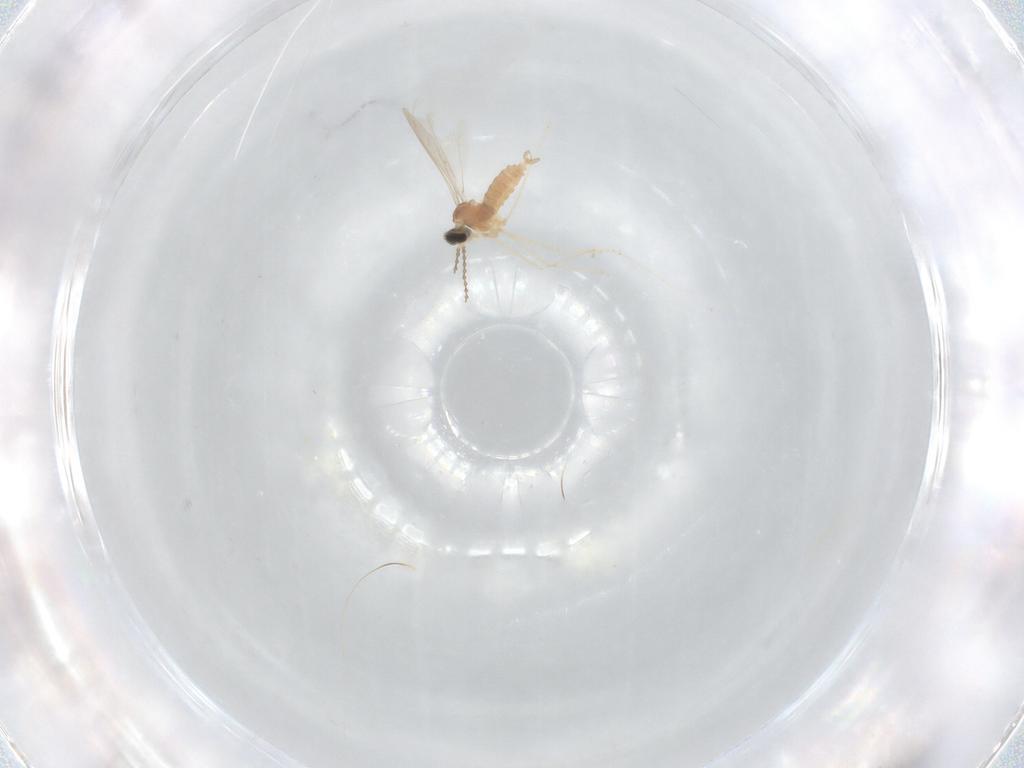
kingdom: Animalia
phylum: Arthropoda
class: Insecta
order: Diptera
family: Cecidomyiidae
